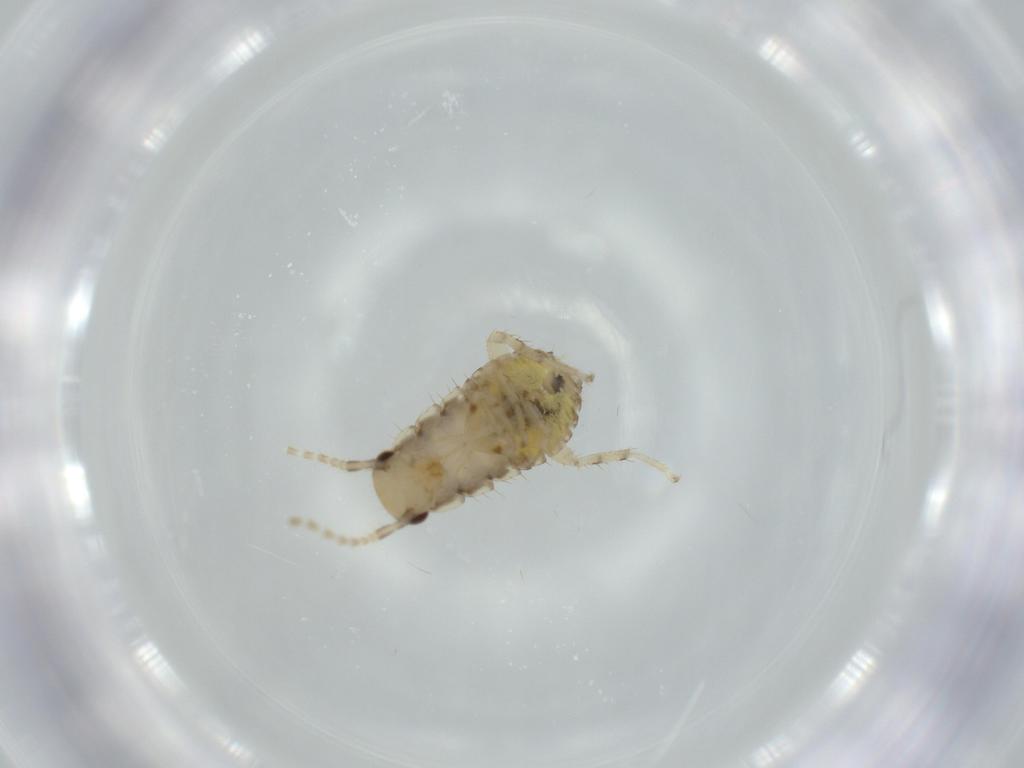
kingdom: Animalia
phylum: Arthropoda
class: Insecta
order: Blattodea
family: Ectobiidae
